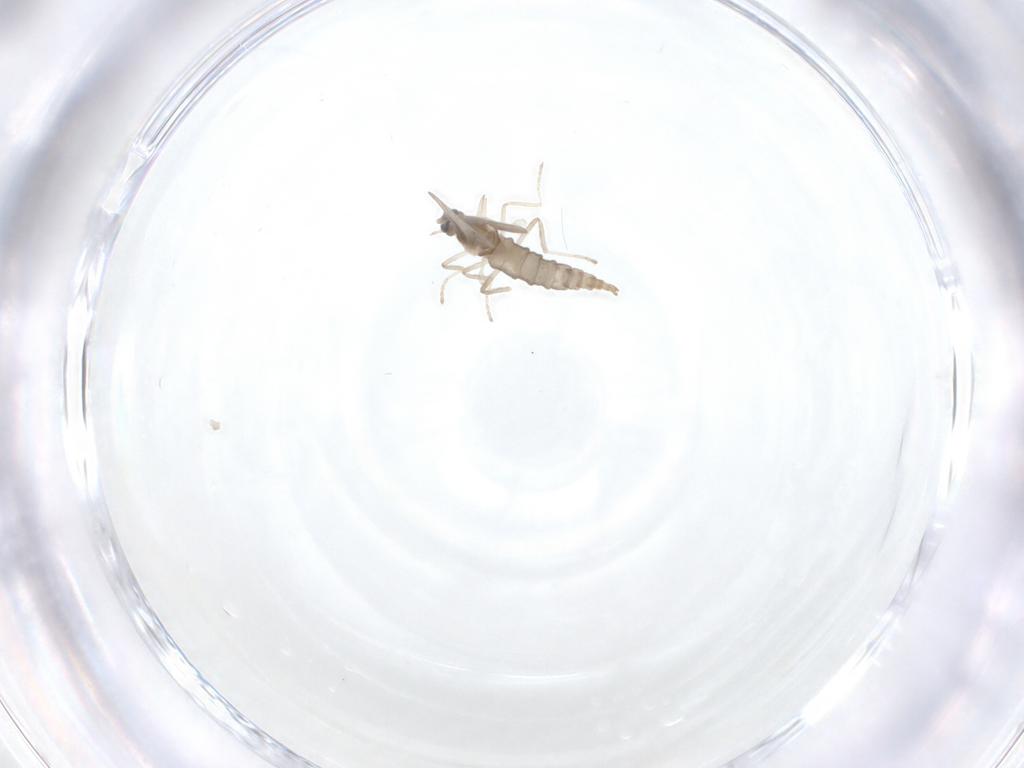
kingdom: Animalia
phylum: Arthropoda
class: Insecta
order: Diptera
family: Cecidomyiidae
